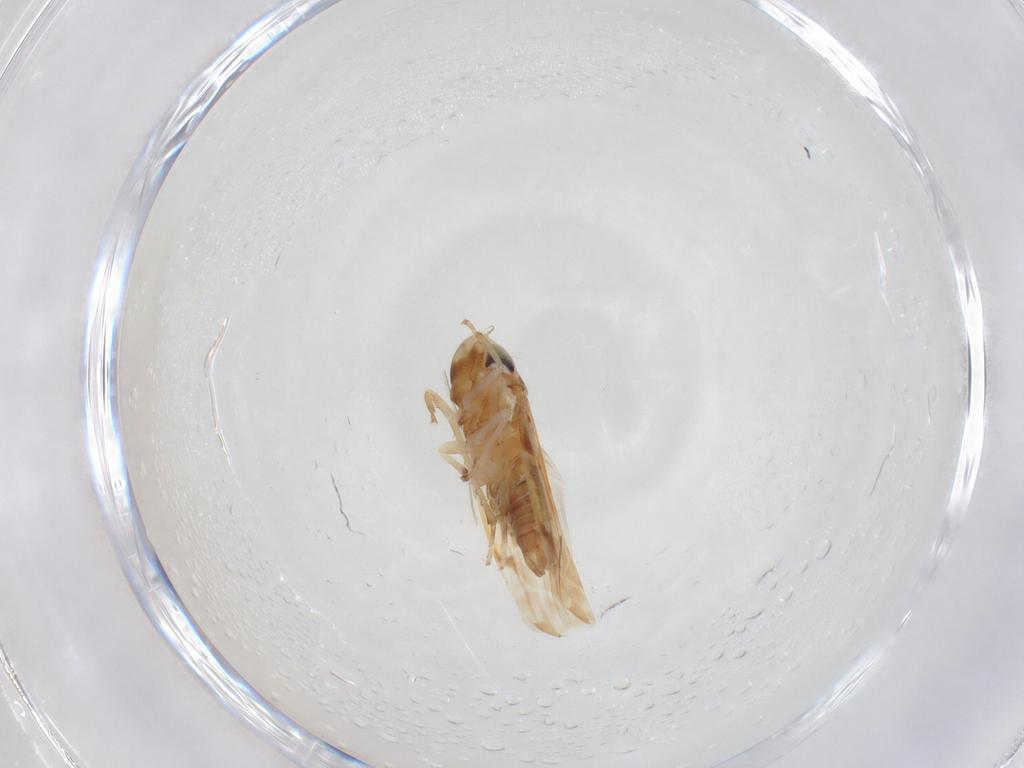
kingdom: Animalia
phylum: Arthropoda
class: Insecta
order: Hemiptera
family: Cicadellidae
